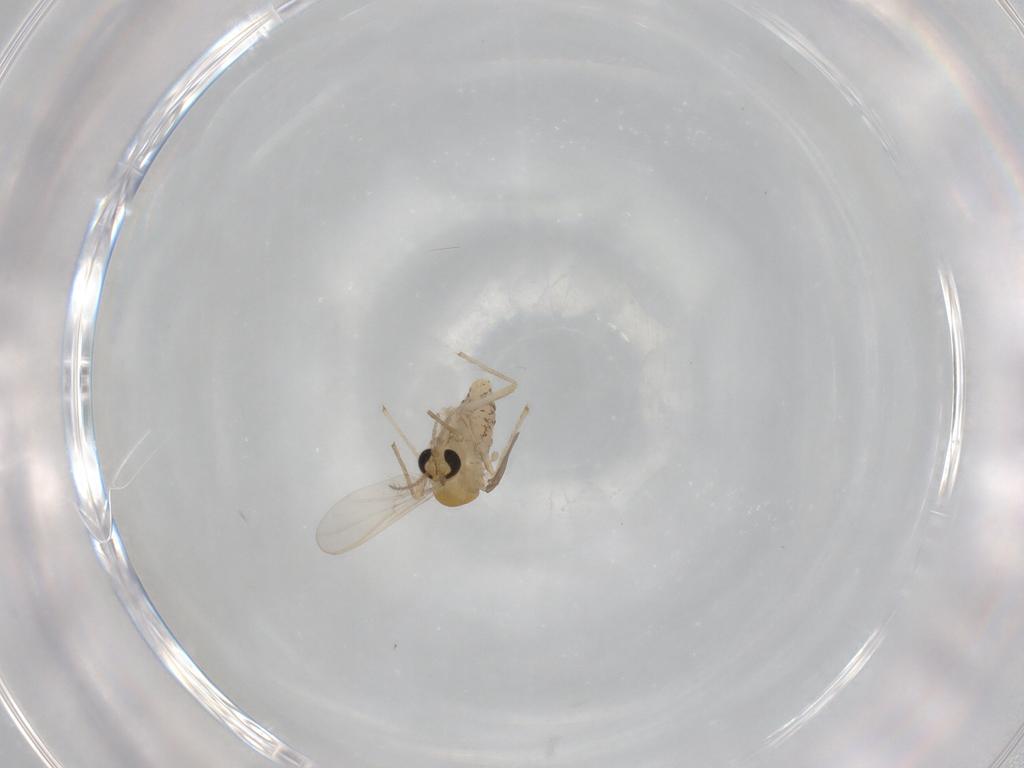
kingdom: Animalia
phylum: Arthropoda
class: Insecta
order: Diptera
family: Chironomidae
